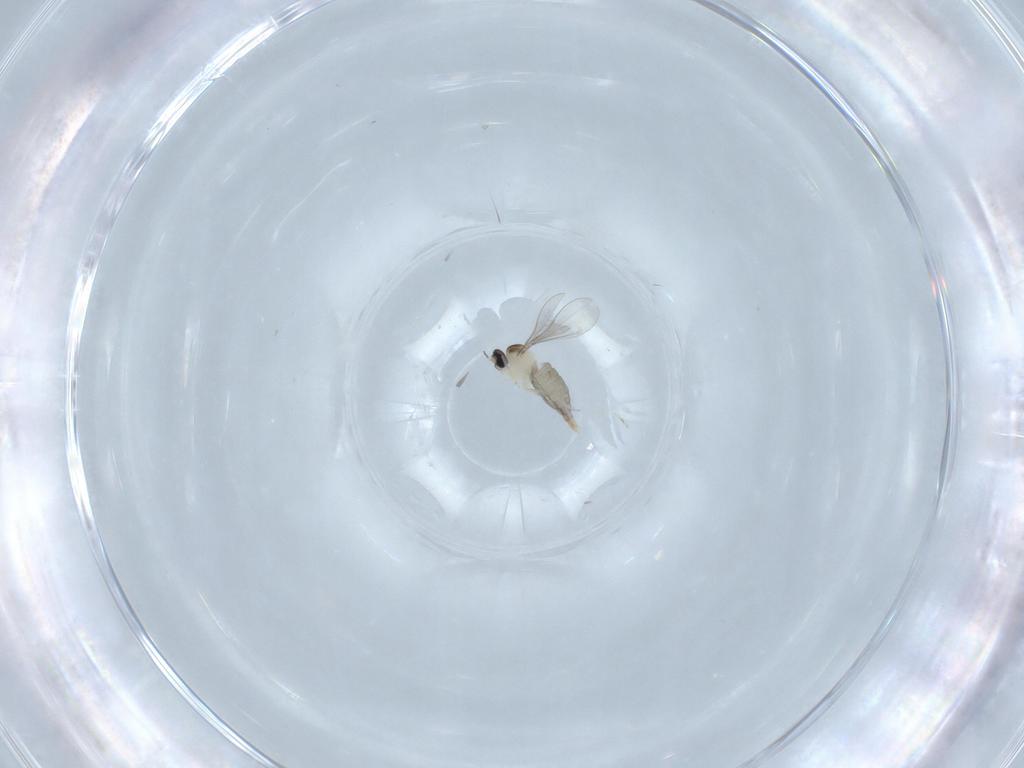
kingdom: Animalia
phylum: Arthropoda
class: Insecta
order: Diptera
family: Cecidomyiidae
